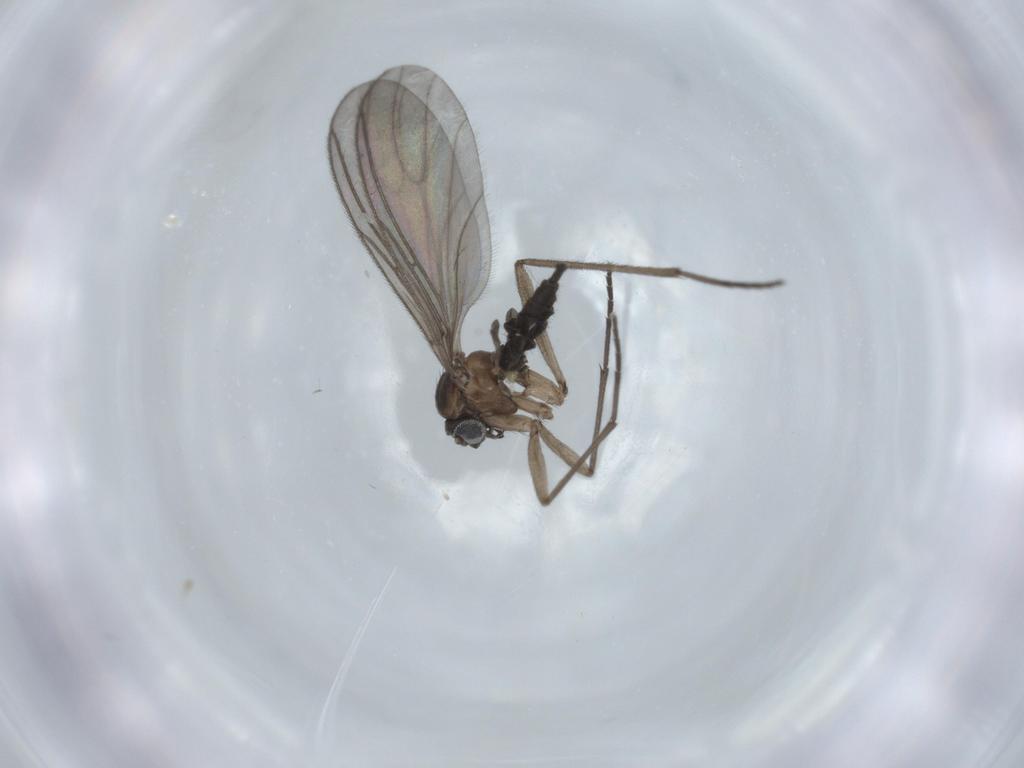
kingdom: Animalia
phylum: Arthropoda
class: Insecta
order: Diptera
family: Sciaridae
